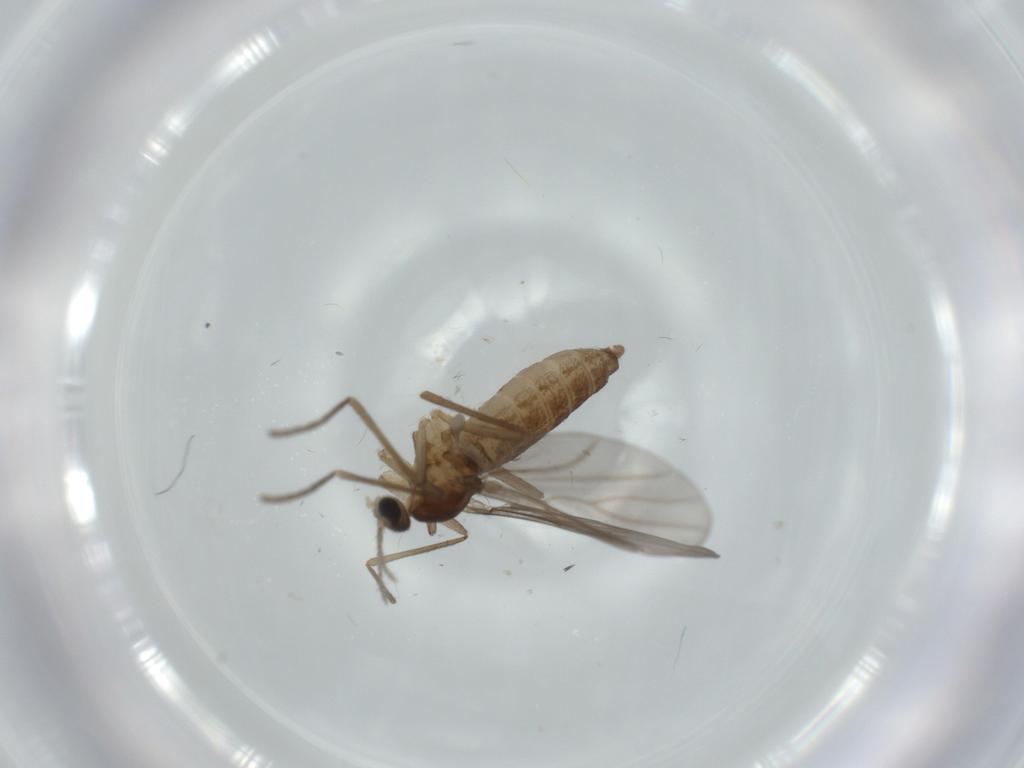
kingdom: Animalia
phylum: Arthropoda
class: Insecta
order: Diptera
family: Cecidomyiidae
